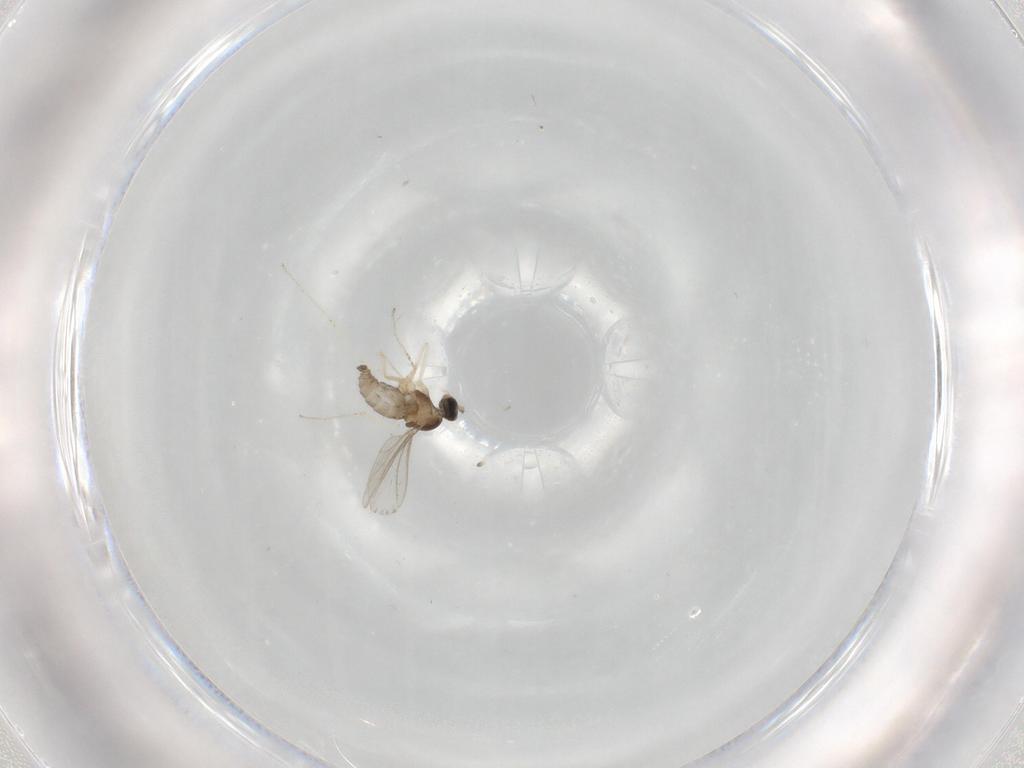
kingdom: Animalia
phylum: Arthropoda
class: Insecta
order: Diptera
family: Cecidomyiidae
